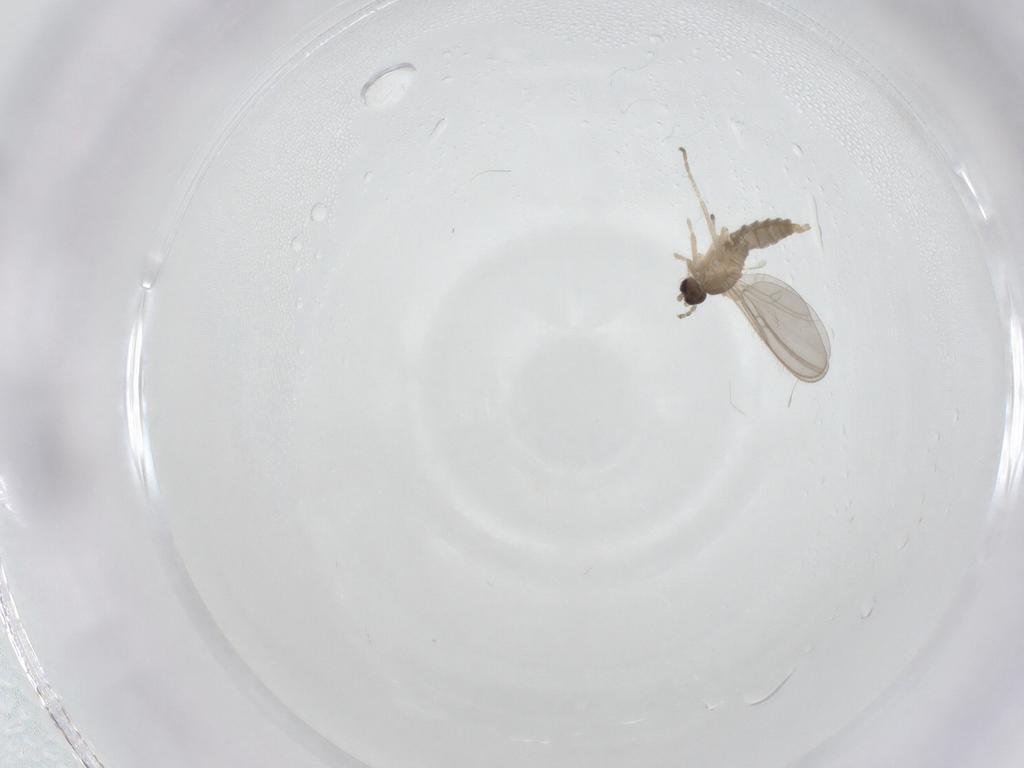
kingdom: Animalia
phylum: Arthropoda
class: Insecta
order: Diptera
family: Cecidomyiidae
